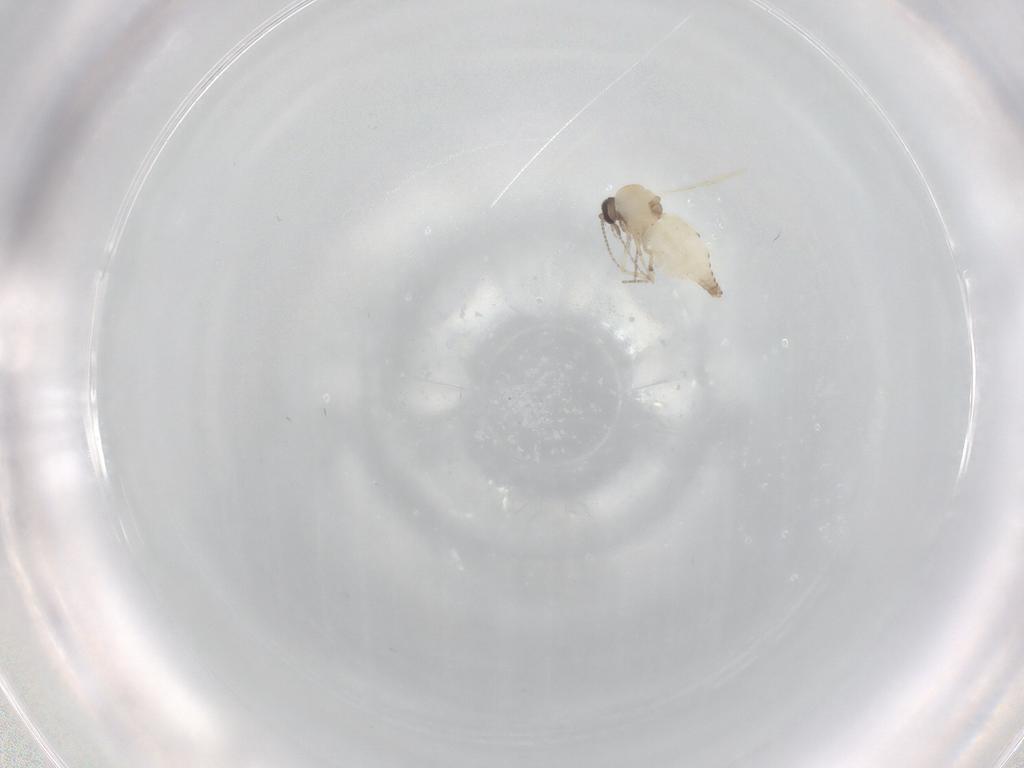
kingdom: Animalia
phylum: Arthropoda
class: Insecta
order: Diptera
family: Ceratopogonidae
